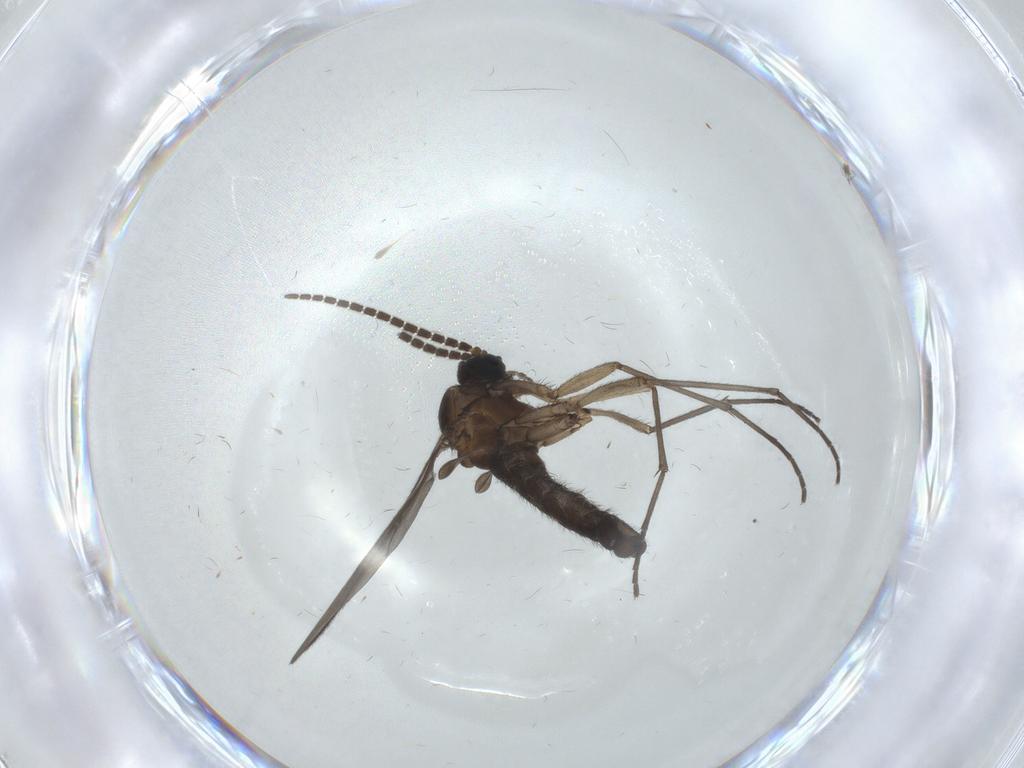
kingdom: Animalia
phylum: Arthropoda
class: Insecta
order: Diptera
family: Sciaridae
